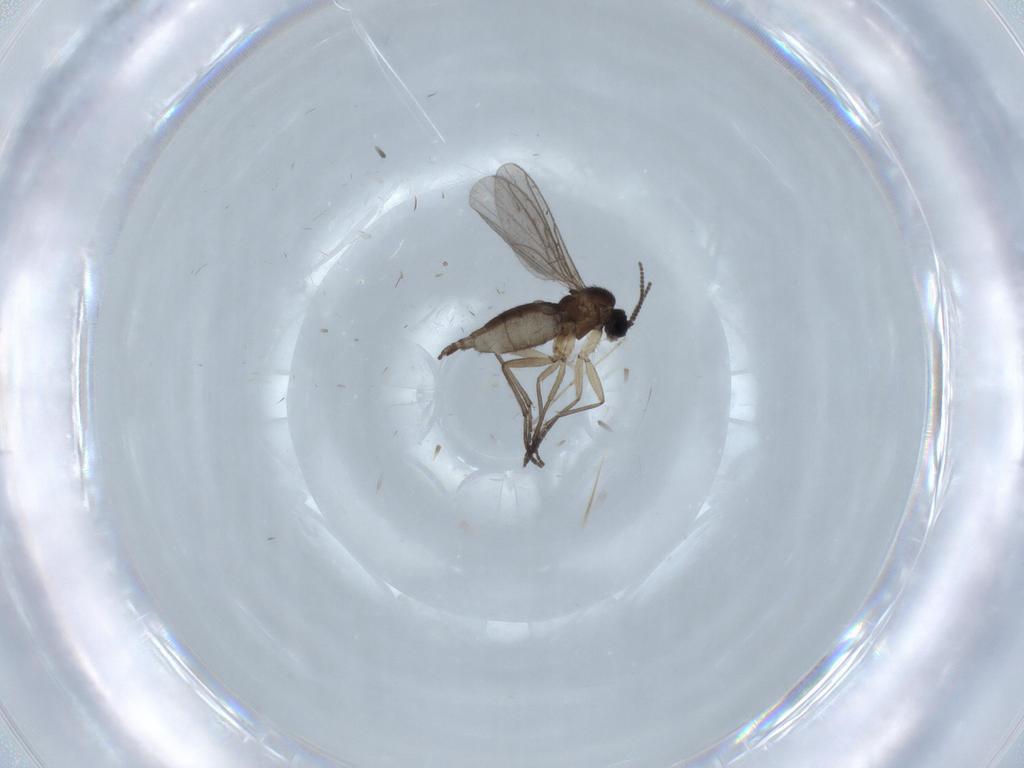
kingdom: Animalia
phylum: Arthropoda
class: Insecta
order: Diptera
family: Sciaridae
